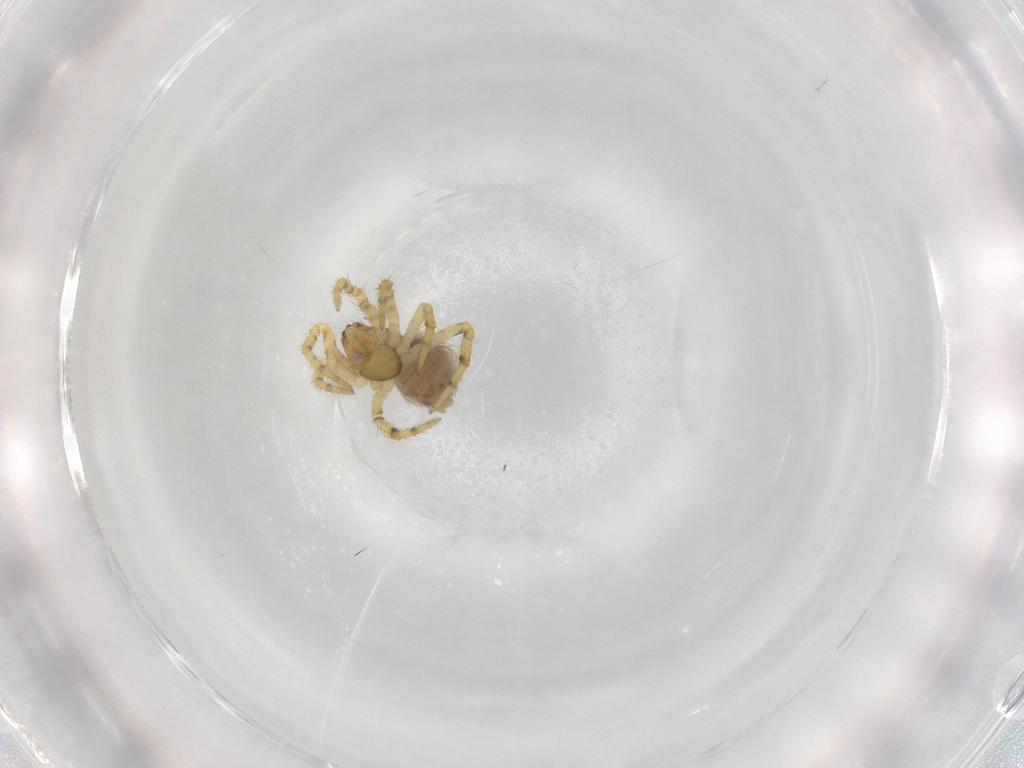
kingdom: Animalia
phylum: Arthropoda
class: Arachnida
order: Araneae
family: Theridiidae
